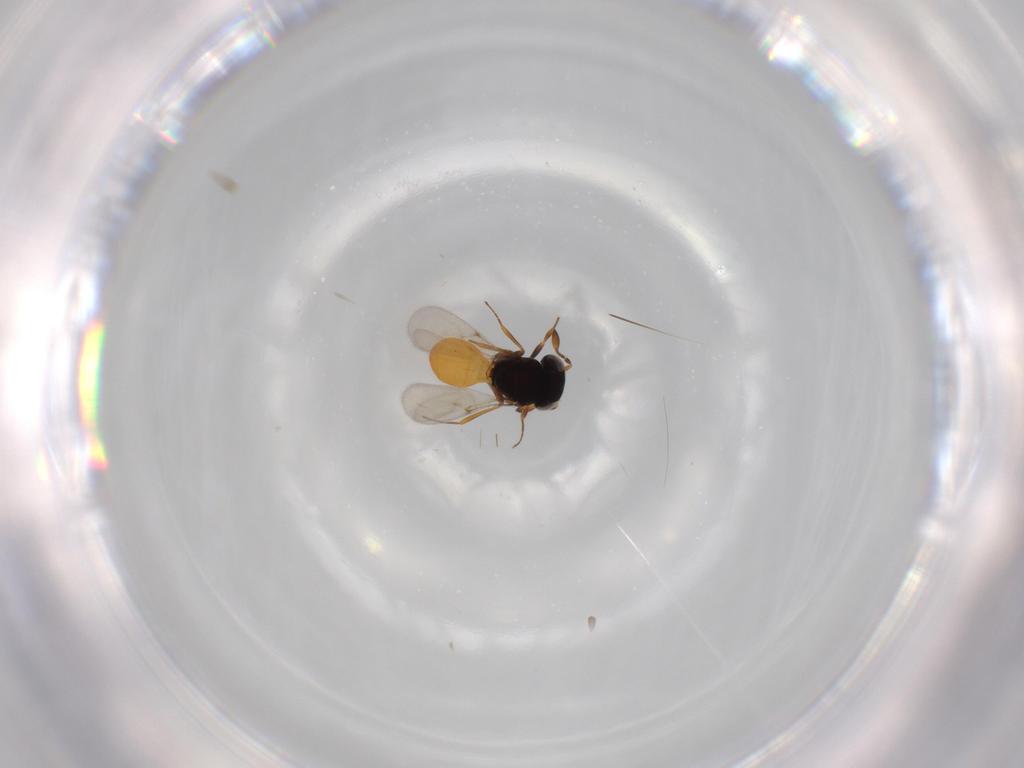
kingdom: Animalia
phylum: Arthropoda
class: Insecta
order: Hymenoptera
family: Scelionidae
